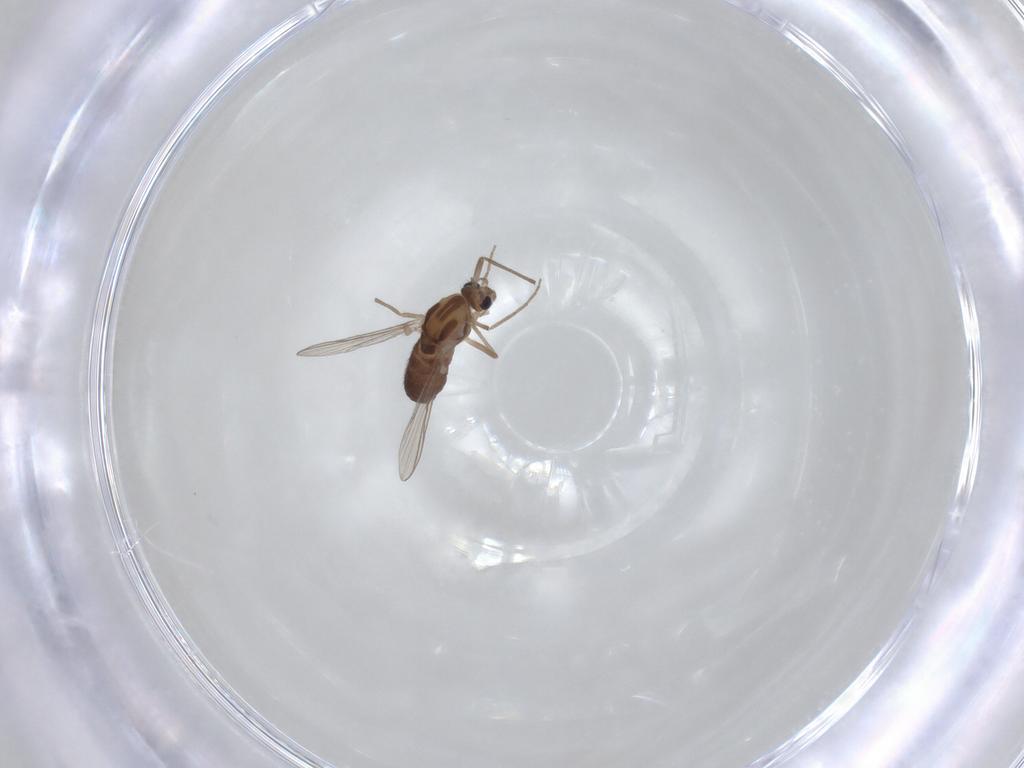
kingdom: Animalia
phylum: Arthropoda
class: Insecta
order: Diptera
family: Chironomidae
